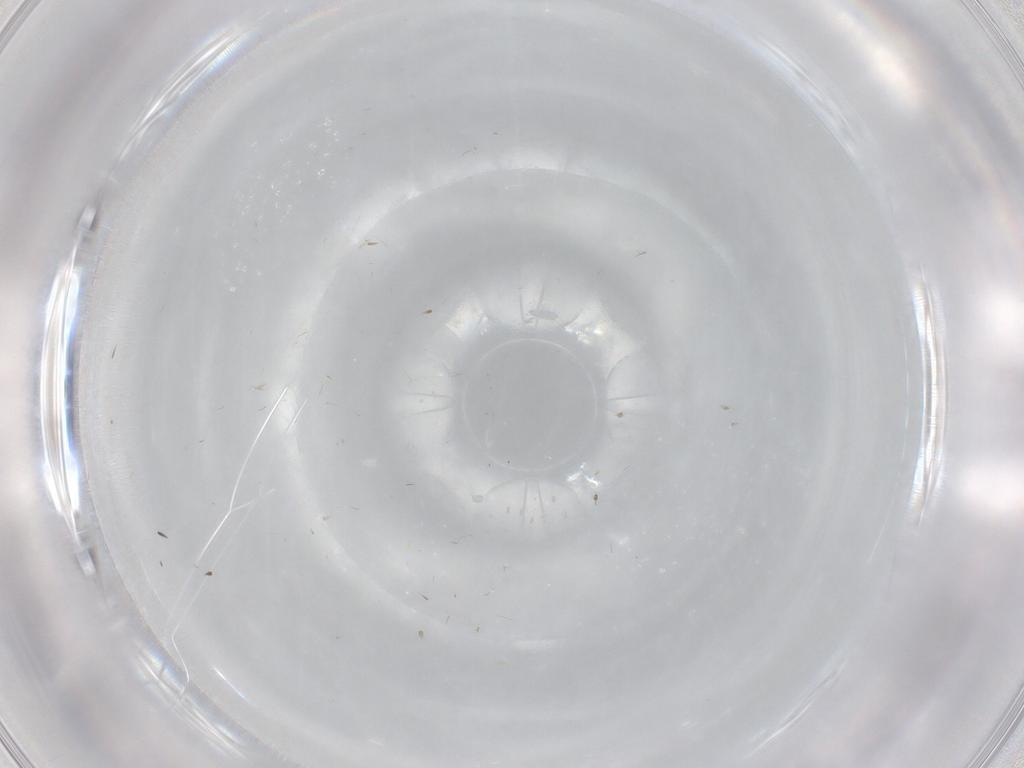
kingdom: Animalia
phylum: Arthropoda
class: Insecta
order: Diptera
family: Cecidomyiidae
